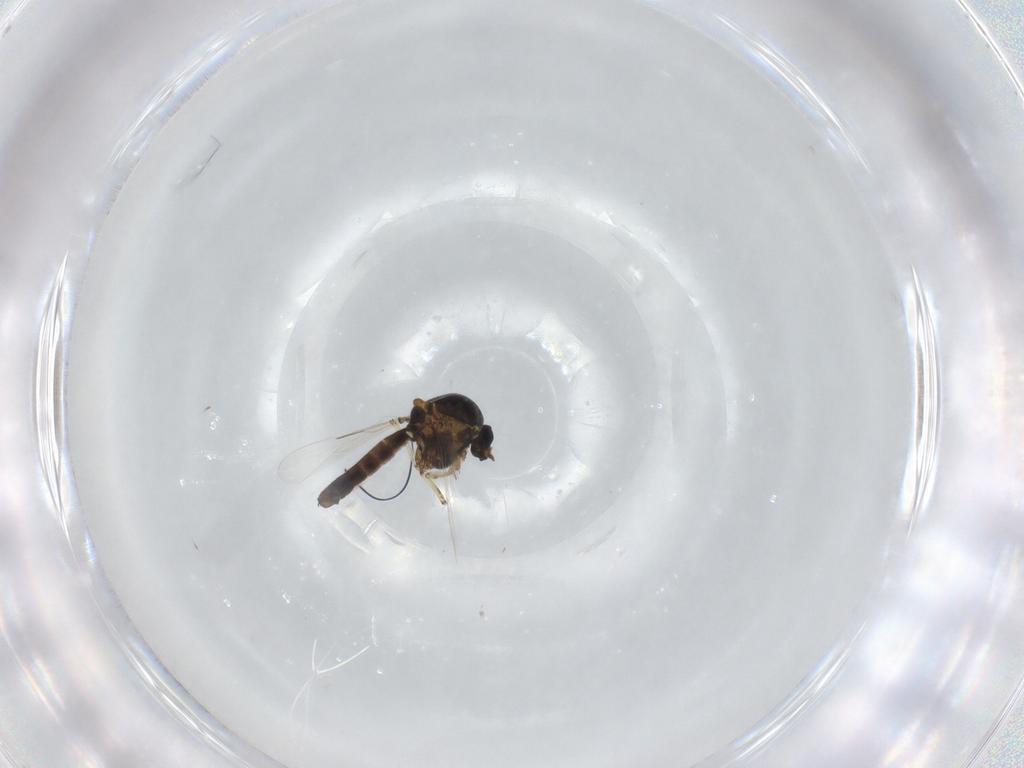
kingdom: Animalia
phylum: Arthropoda
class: Insecta
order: Diptera
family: Ceratopogonidae
